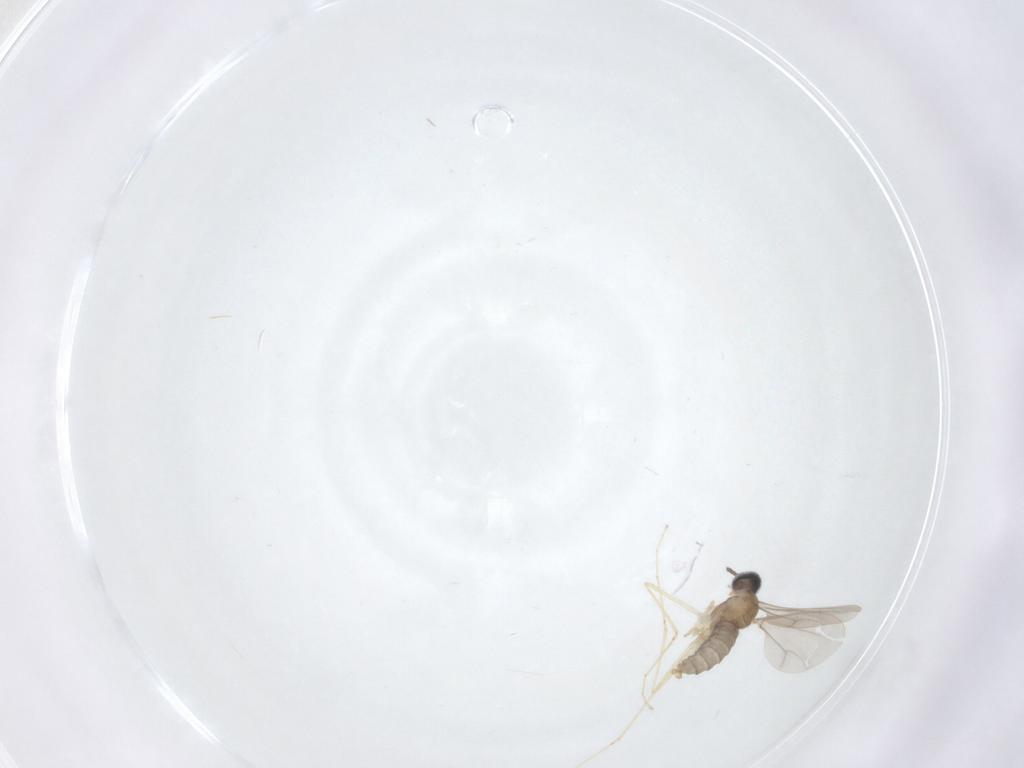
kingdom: Animalia
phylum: Arthropoda
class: Insecta
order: Diptera
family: Cecidomyiidae
